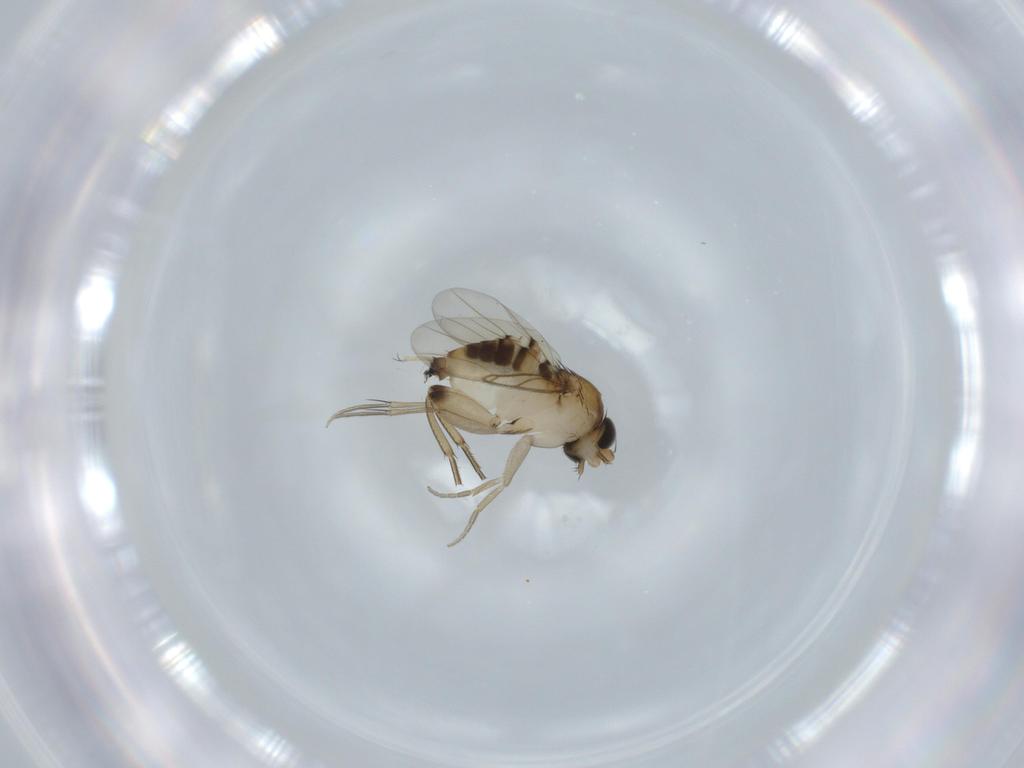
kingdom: Animalia
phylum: Arthropoda
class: Insecta
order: Diptera
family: Phoridae
